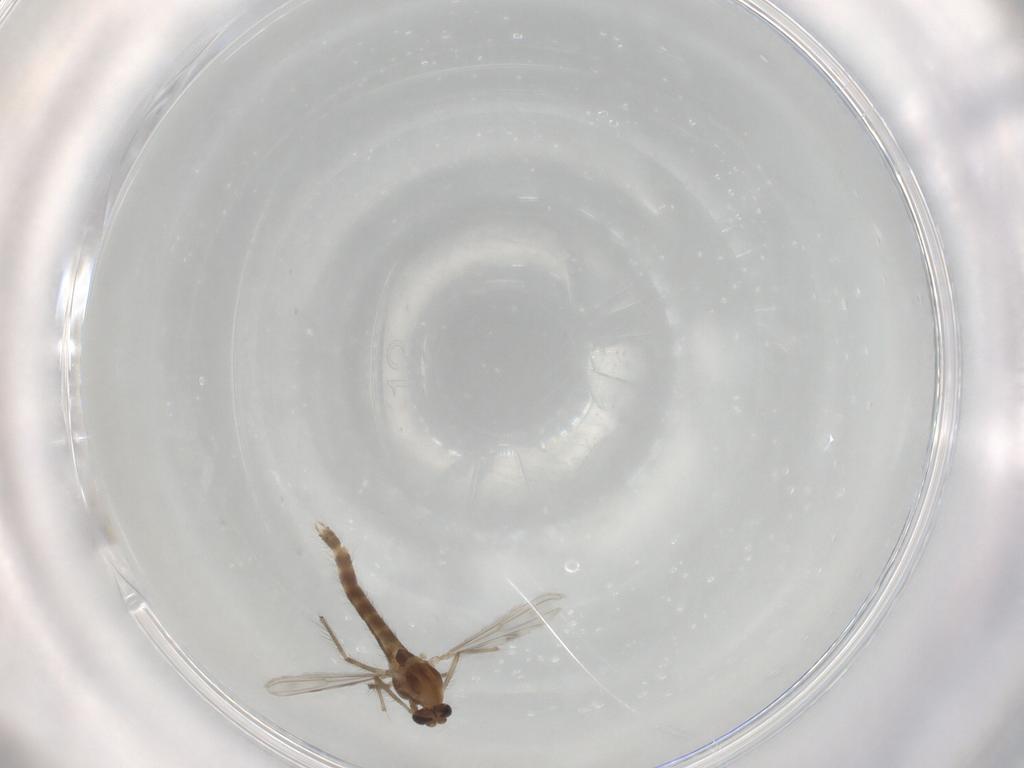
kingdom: Animalia
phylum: Arthropoda
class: Insecta
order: Diptera
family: Chironomidae
